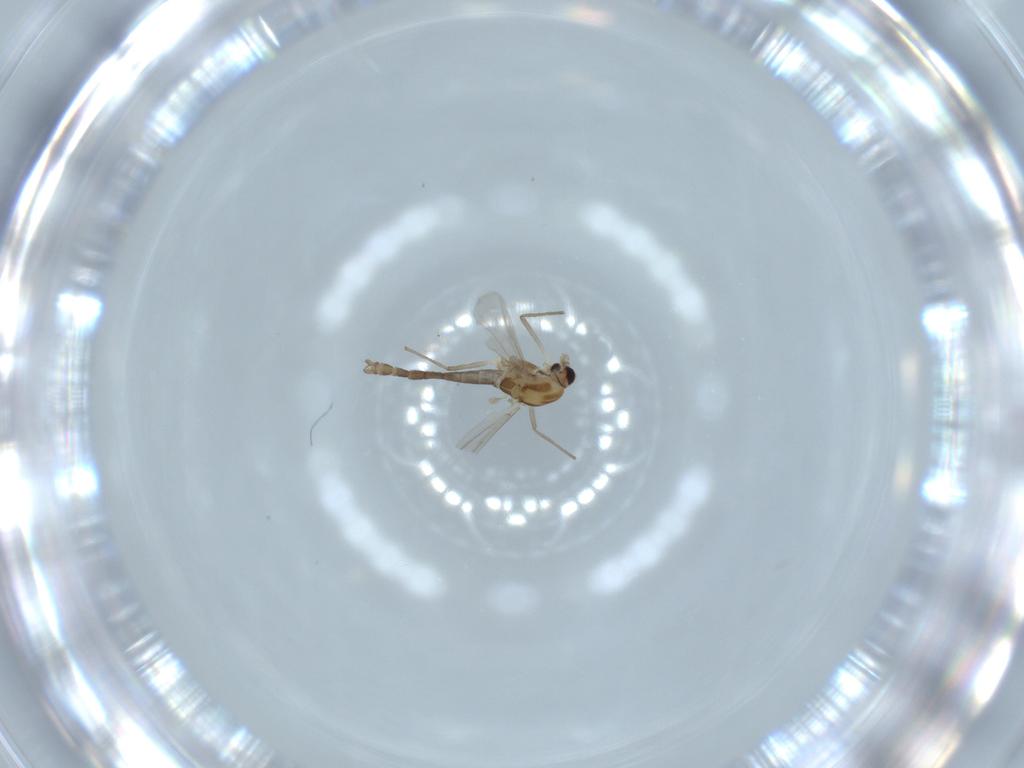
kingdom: Animalia
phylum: Arthropoda
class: Insecta
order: Diptera
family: Chironomidae
